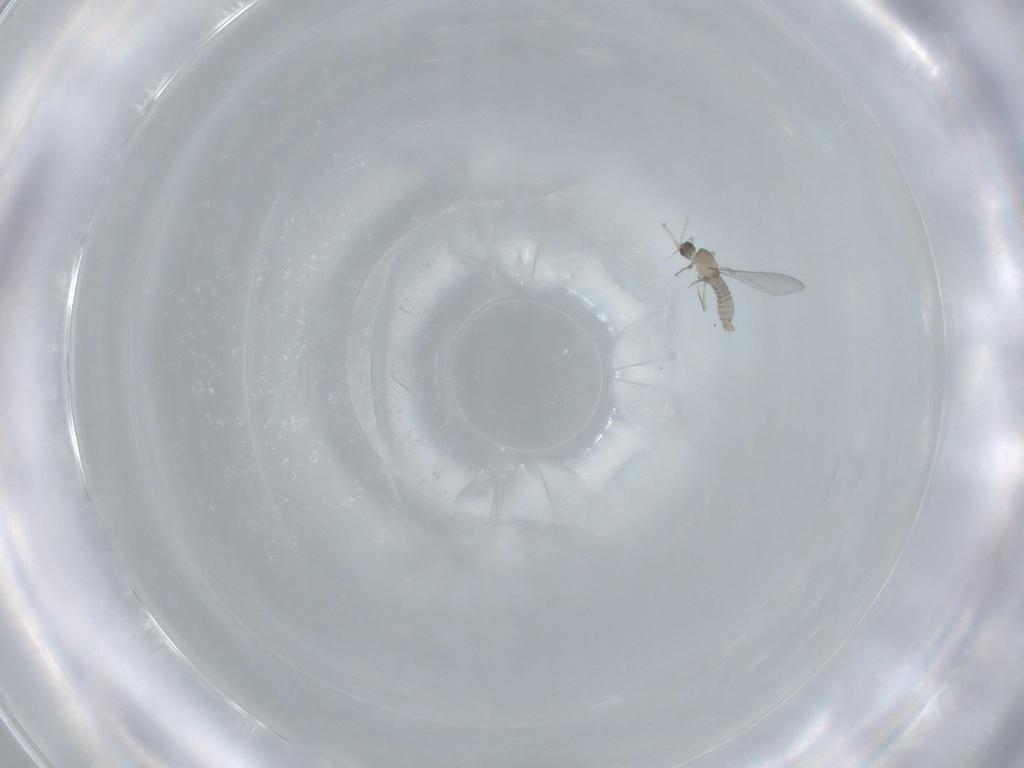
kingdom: Animalia
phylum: Arthropoda
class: Insecta
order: Diptera
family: Cecidomyiidae
